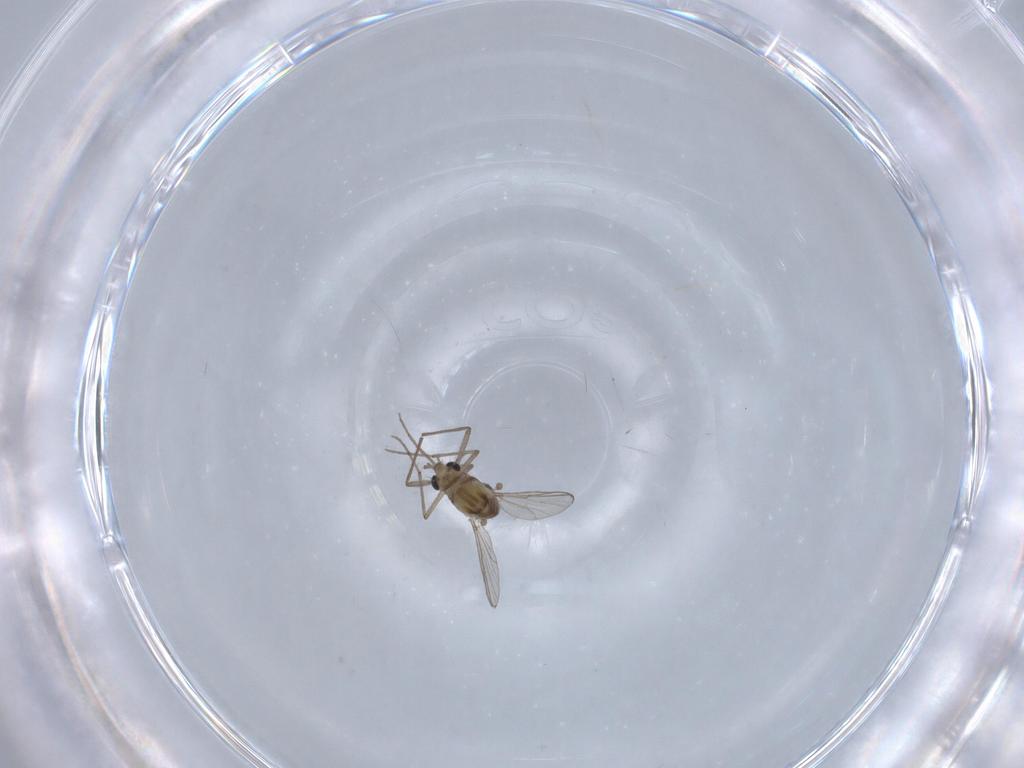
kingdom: Animalia
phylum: Arthropoda
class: Insecta
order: Diptera
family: Chironomidae
